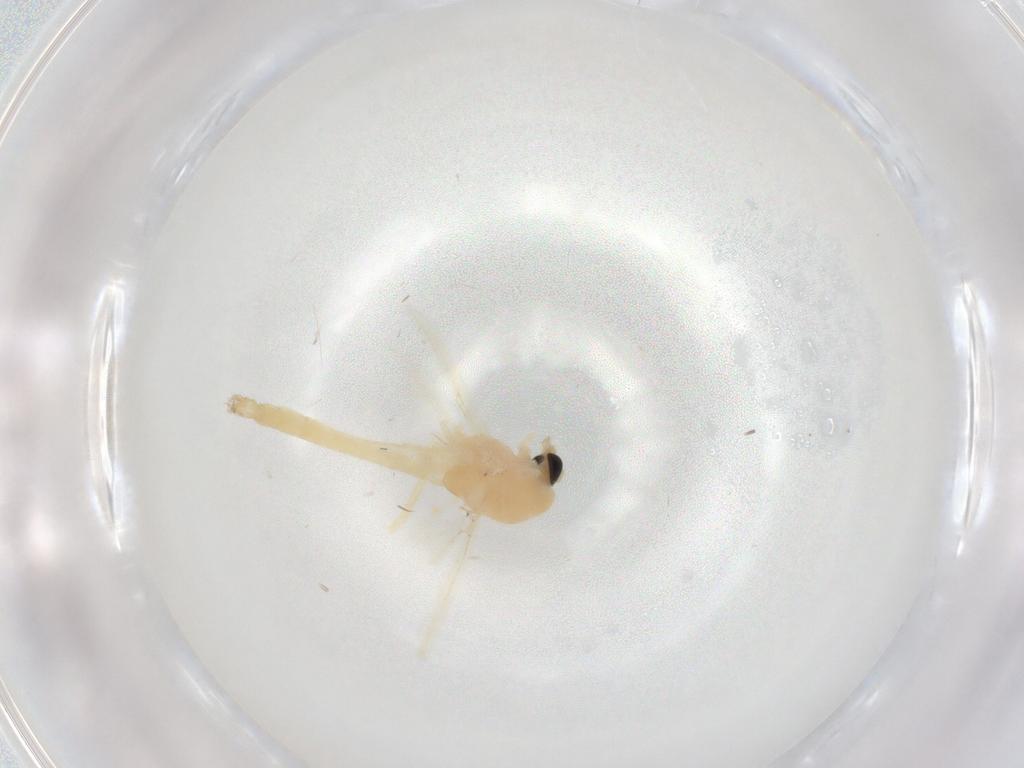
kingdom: Animalia
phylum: Arthropoda
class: Insecta
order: Diptera
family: Chironomidae
